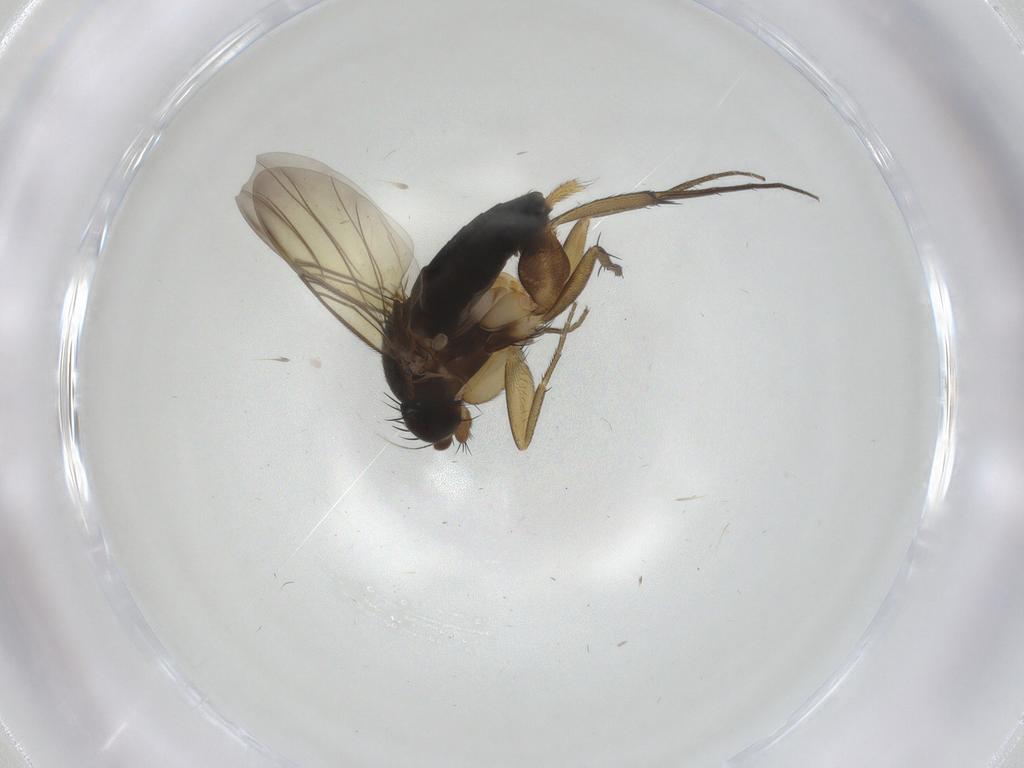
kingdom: Animalia
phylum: Arthropoda
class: Insecta
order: Diptera
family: Phoridae
